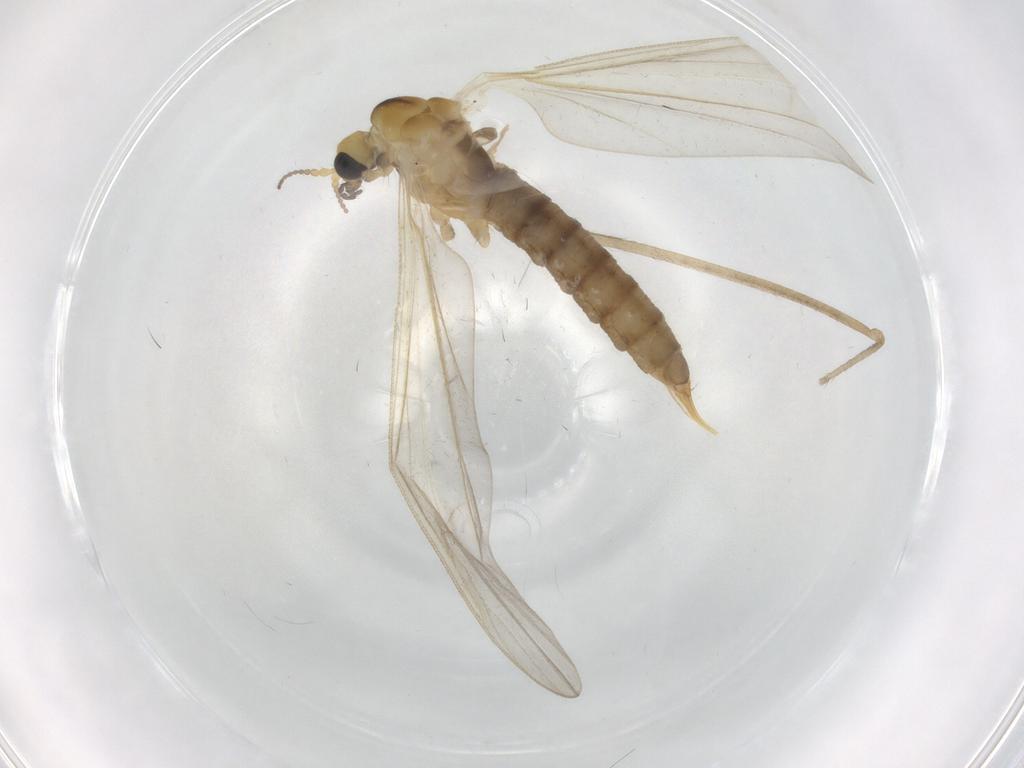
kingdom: Animalia
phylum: Arthropoda
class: Insecta
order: Diptera
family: Limoniidae
